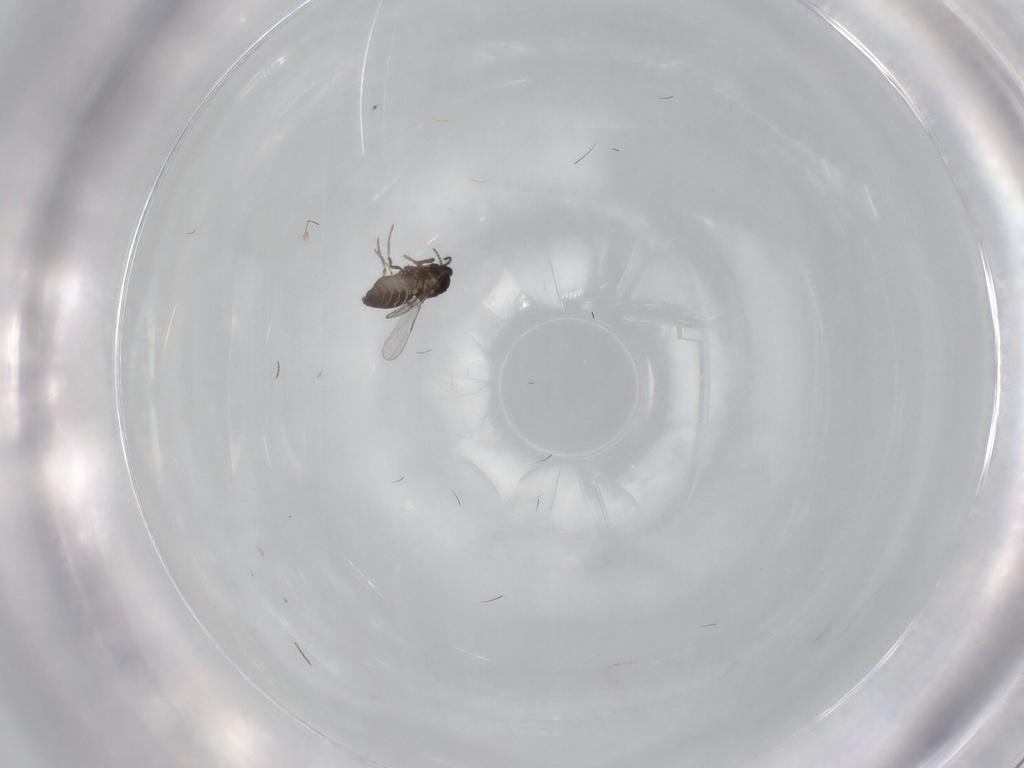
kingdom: Animalia
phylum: Arthropoda
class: Insecta
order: Diptera
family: Ceratopogonidae
